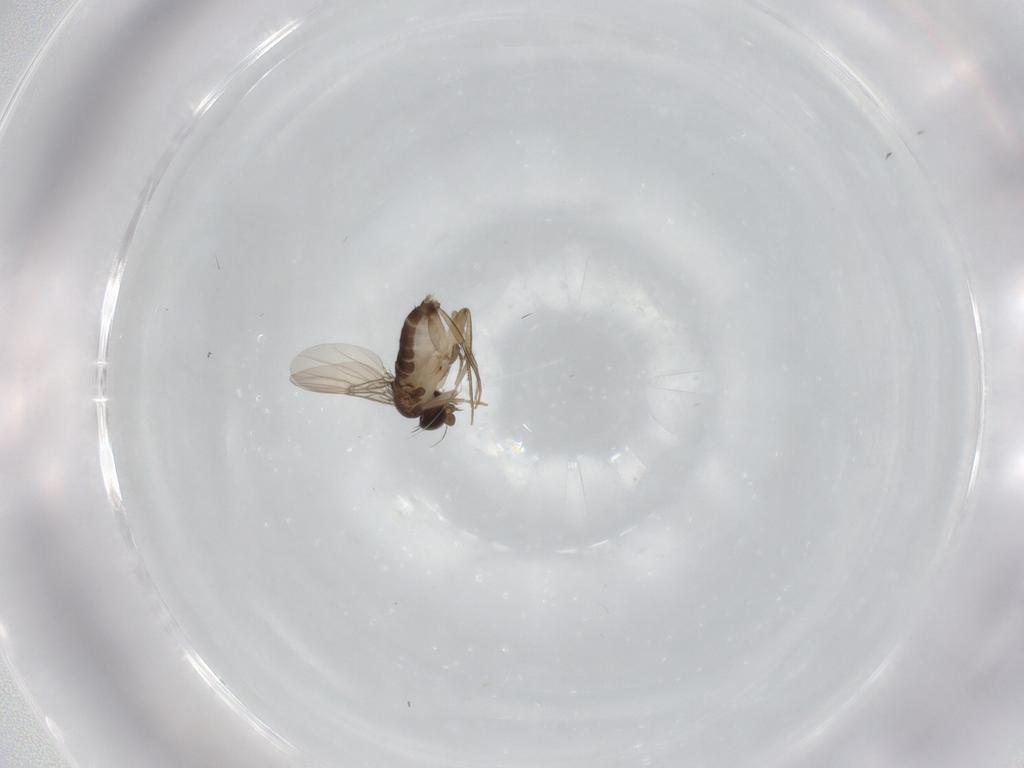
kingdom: Animalia
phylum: Arthropoda
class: Insecta
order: Diptera
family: Phoridae
